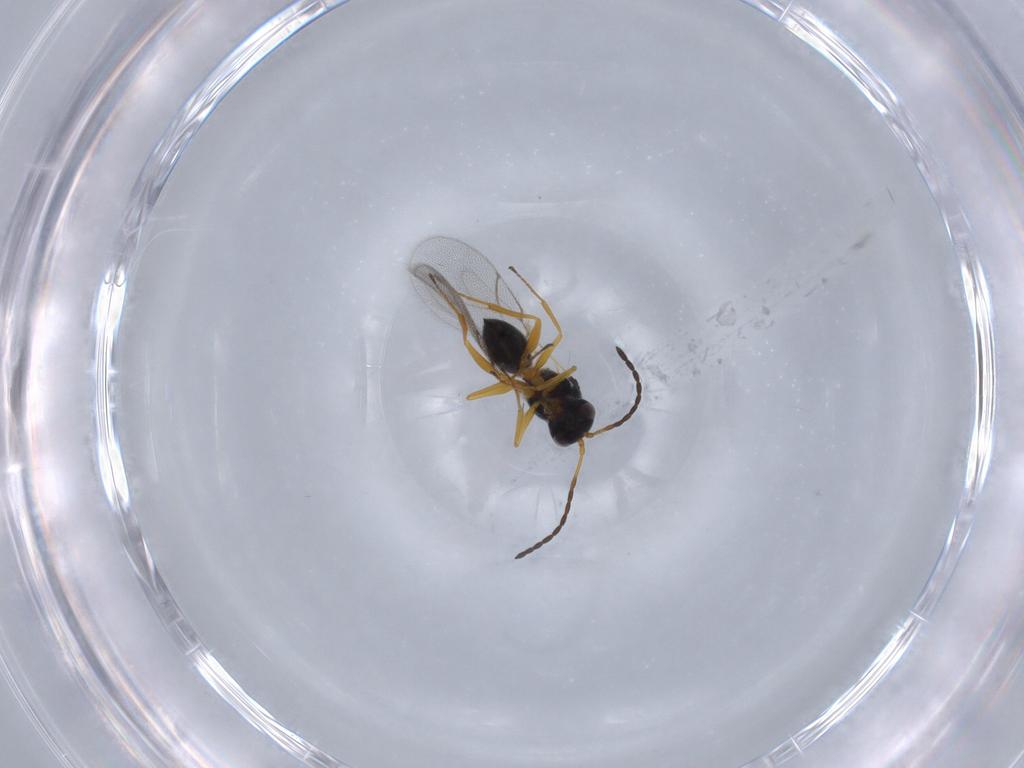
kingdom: Animalia
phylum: Arthropoda
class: Insecta
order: Hymenoptera
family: Figitidae
